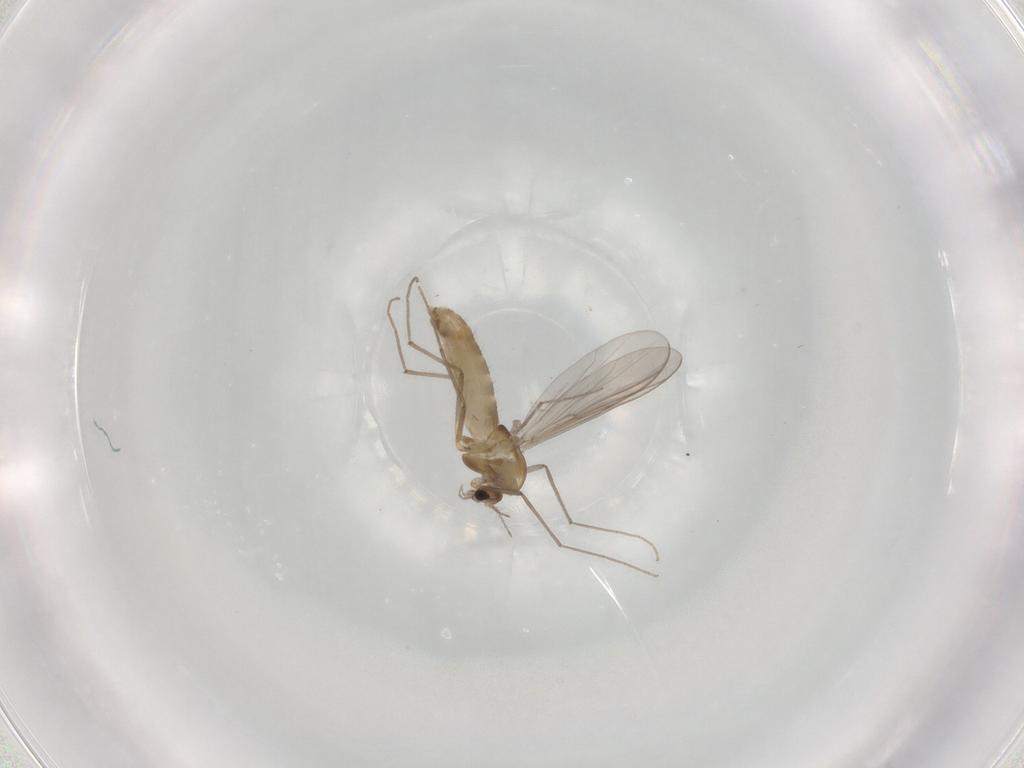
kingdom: Animalia
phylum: Arthropoda
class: Insecta
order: Diptera
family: Chironomidae
